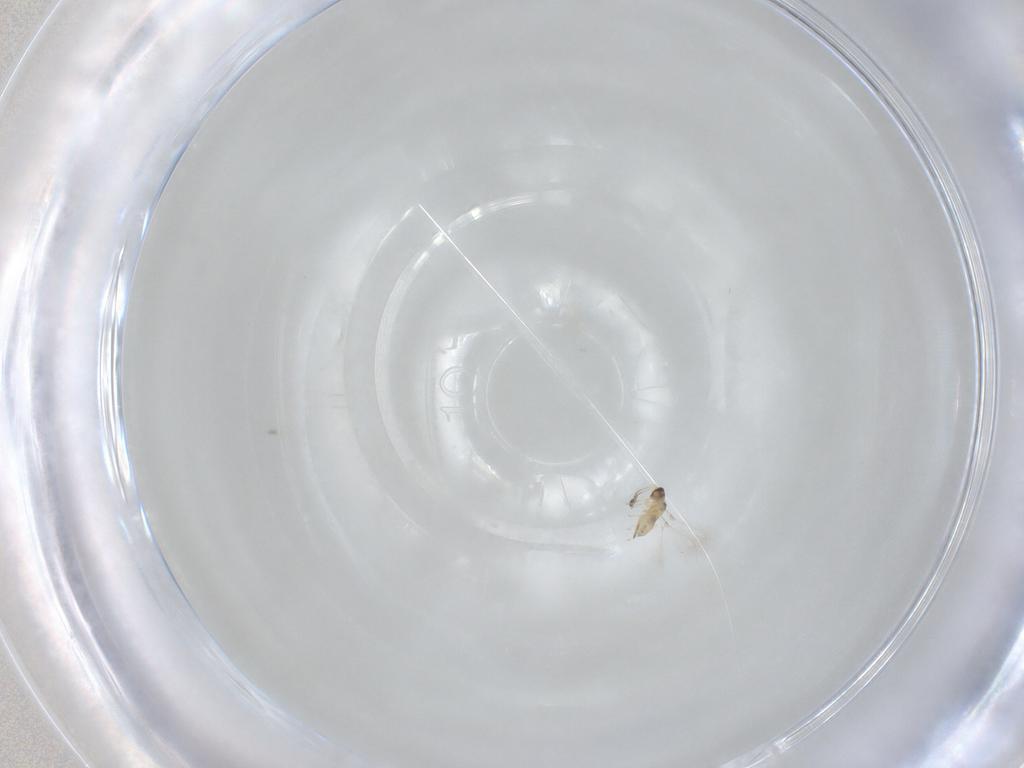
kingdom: Animalia
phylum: Arthropoda
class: Insecta
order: Hymenoptera
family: Mymaridae
